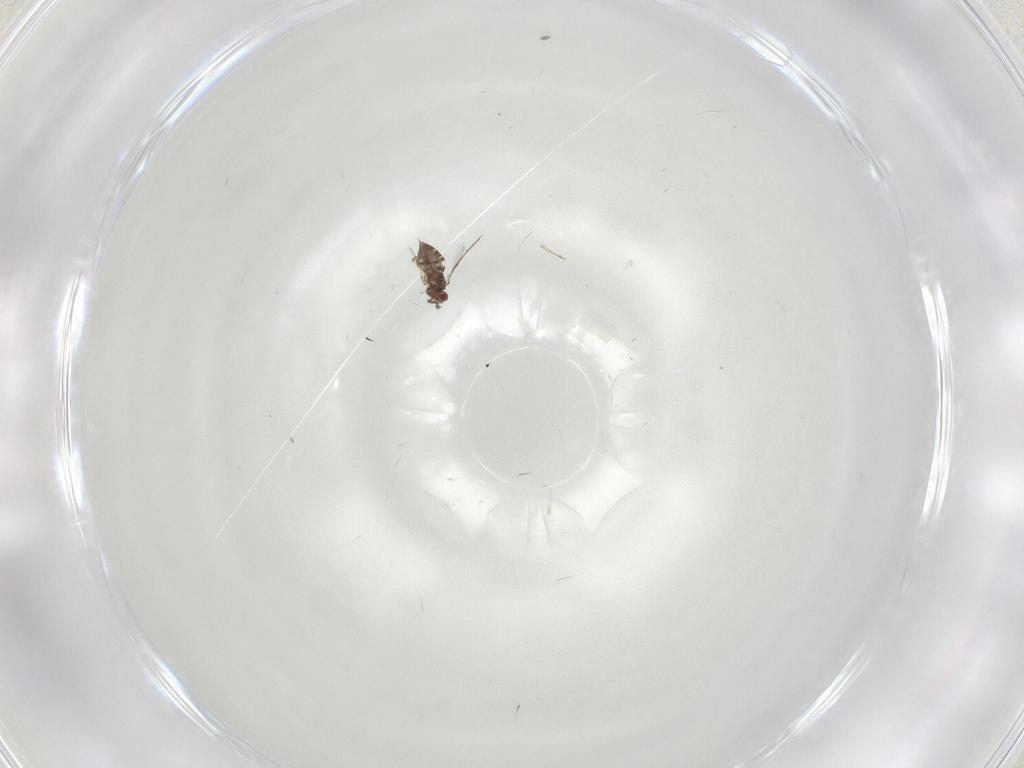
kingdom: Animalia
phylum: Arthropoda
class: Insecta
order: Hymenoptera
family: Trichogrammatidae
